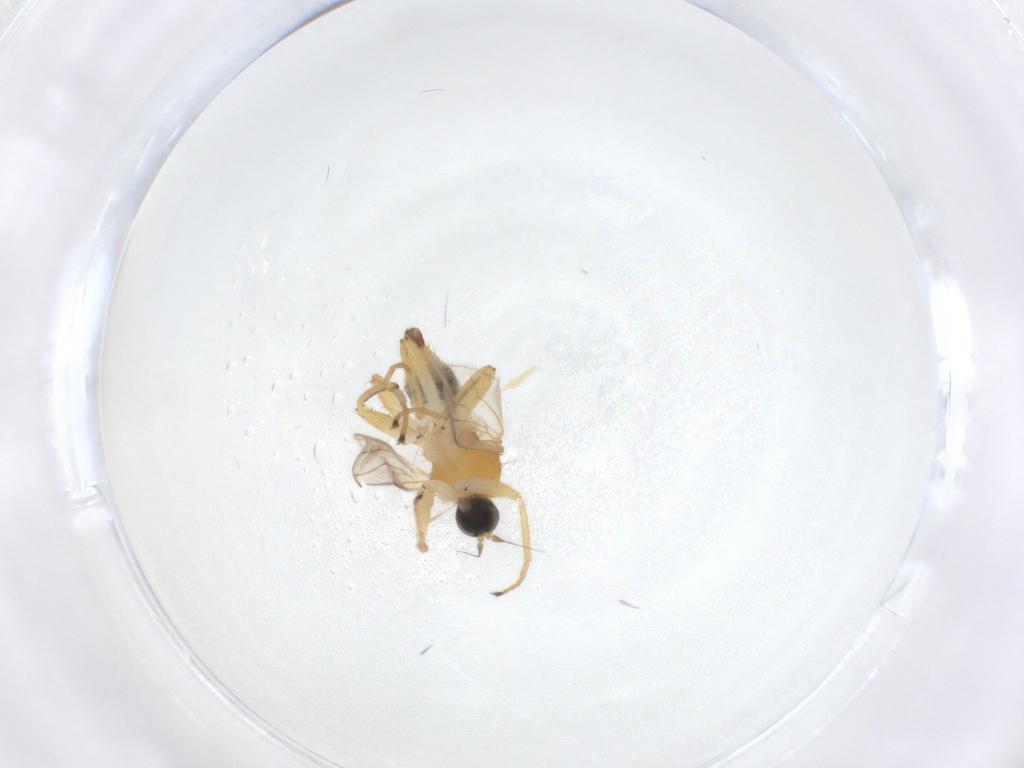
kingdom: Animalia
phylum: Arthropoda
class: Insecta
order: Diptera
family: Hybotidae
